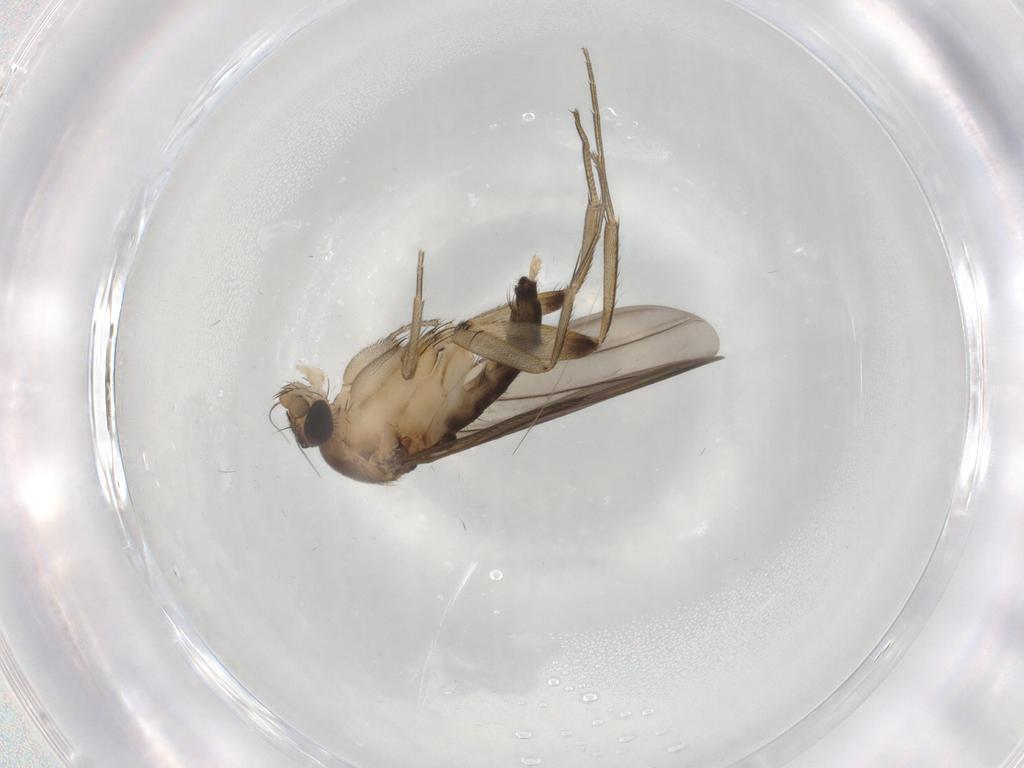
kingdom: Animalia
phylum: Arthropoda
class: Insecta
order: Diptera
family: Phoridae
